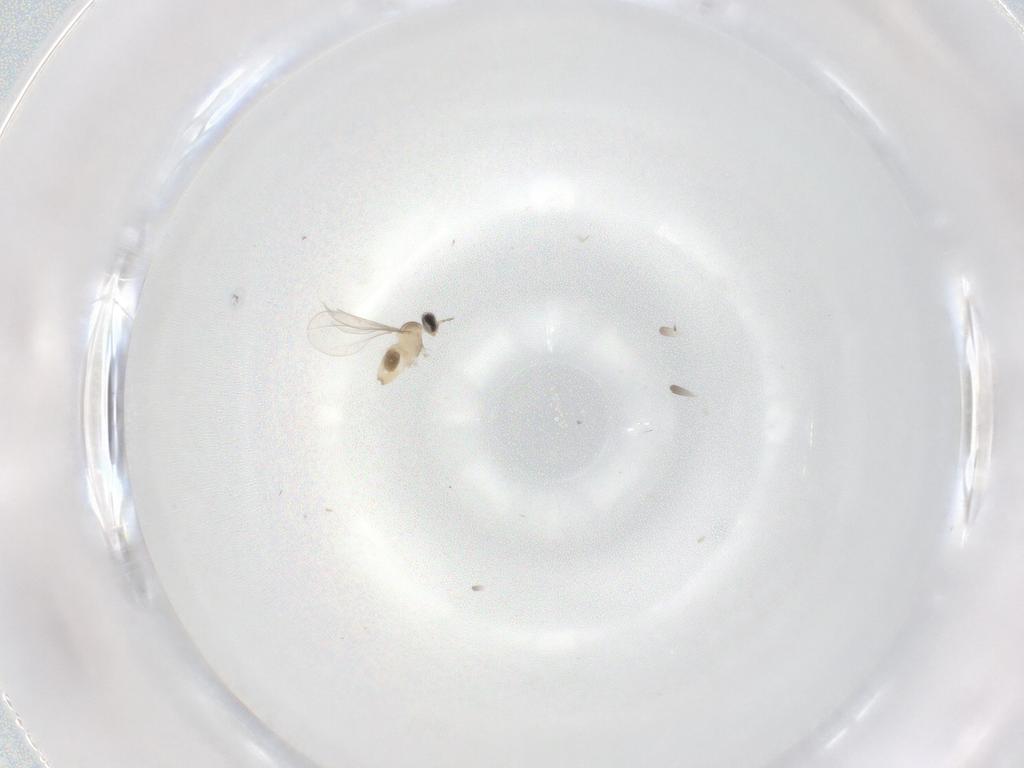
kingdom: Animalia
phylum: Arthropoda
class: Insecta
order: Diptera
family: Cecidomyiidae
